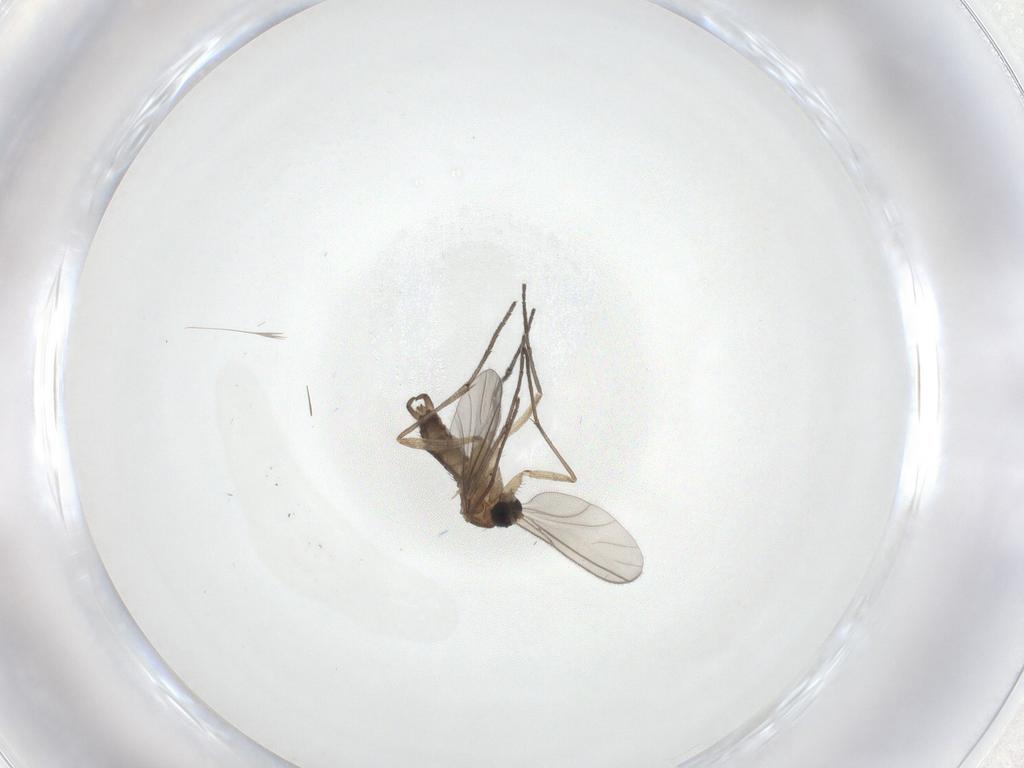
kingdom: Animalia
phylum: Arthropoda
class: Insecta
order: Diptera
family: Sciaridae
